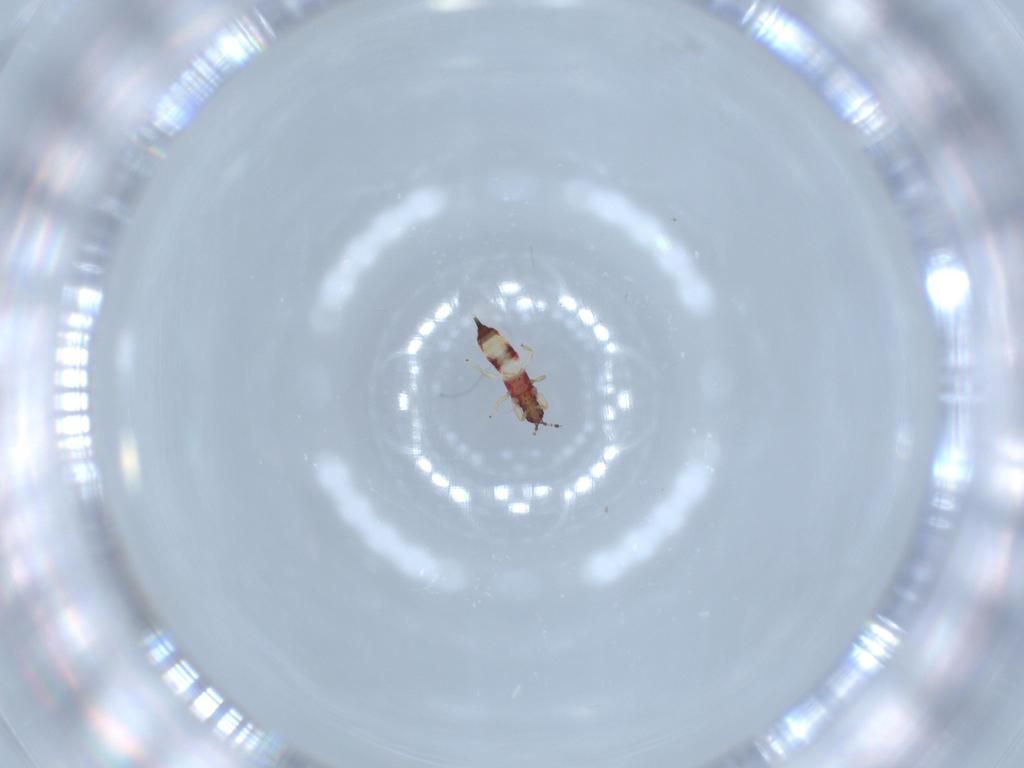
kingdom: Animalia
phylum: Arthropoda
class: Insecta
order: Thysanoptera
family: Phlaeothripidae
